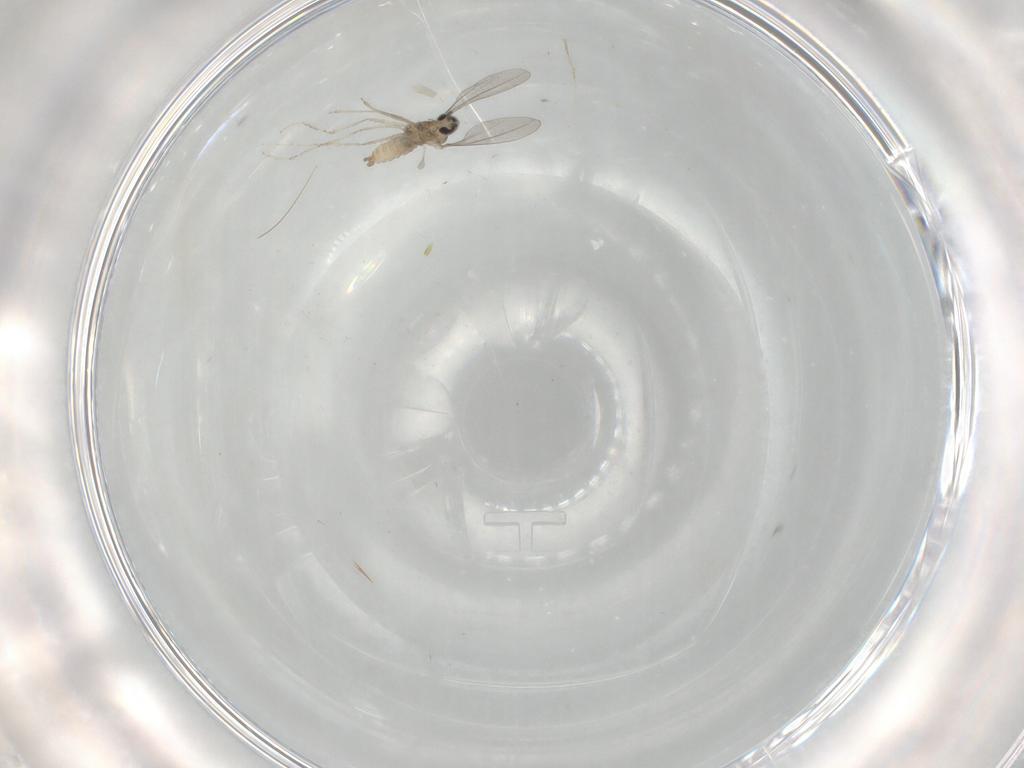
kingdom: Animalia
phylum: Arthropoda
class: Insecta
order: Diptera
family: Cecidomyiidae
